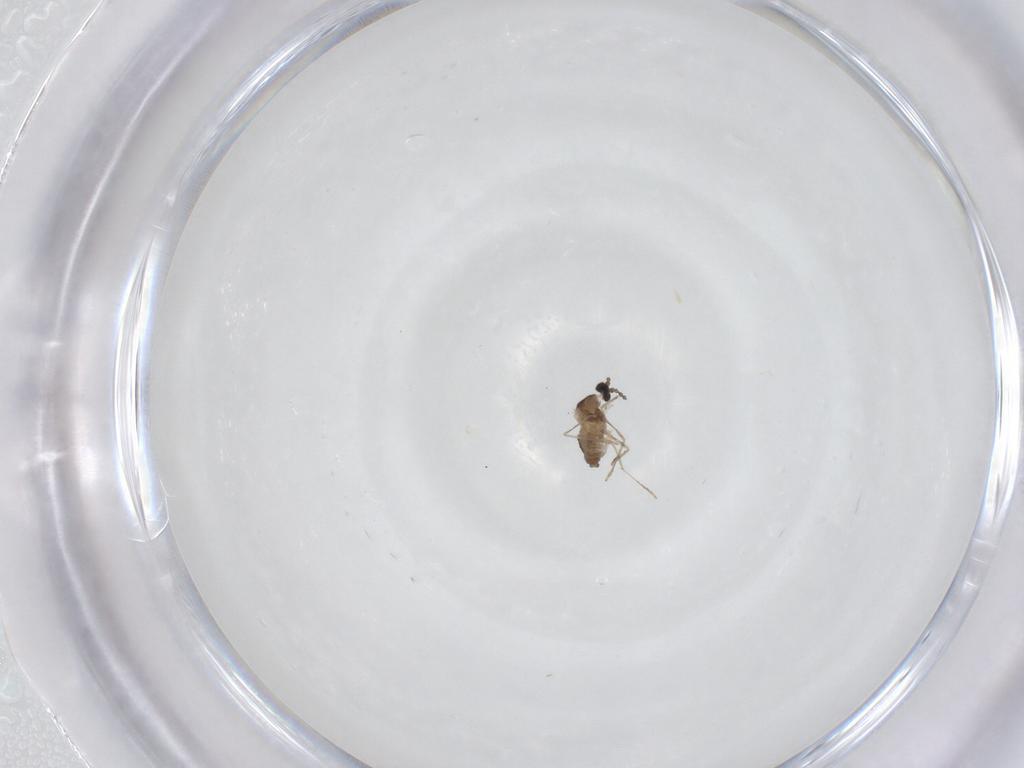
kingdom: Animalia
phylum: Arthropoda
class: Insecta
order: Diptera
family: Cecidomyiidae
